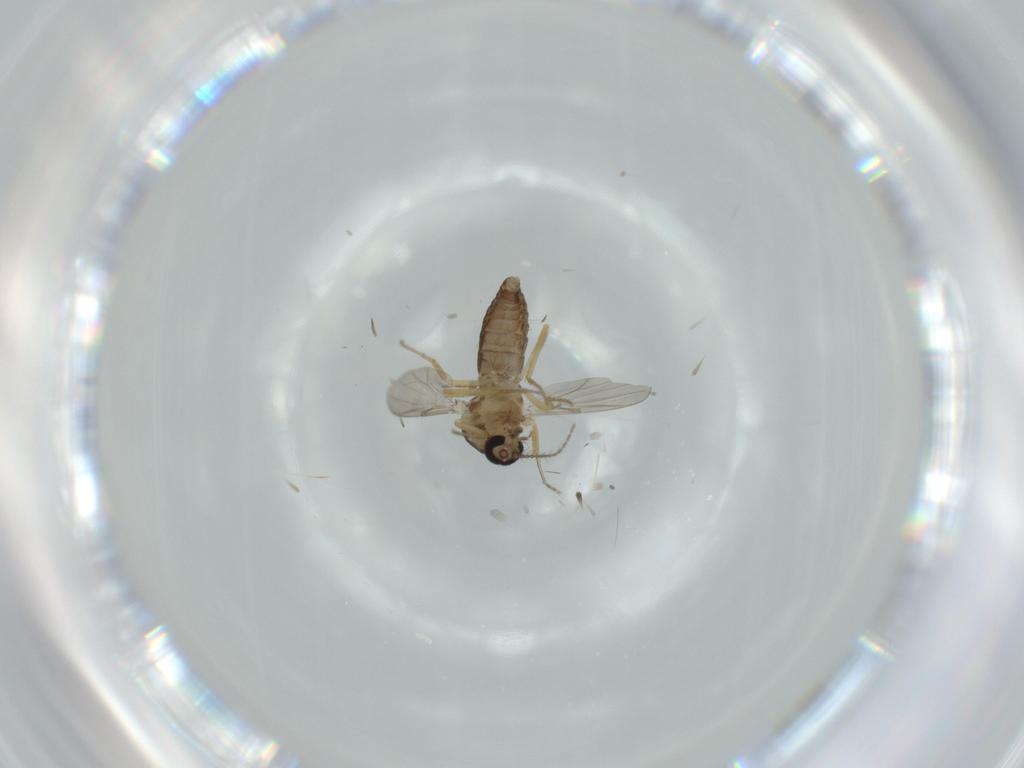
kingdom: Animalia
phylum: Arthropoda
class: Insecta
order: Diptera
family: Ceratopogonidae
